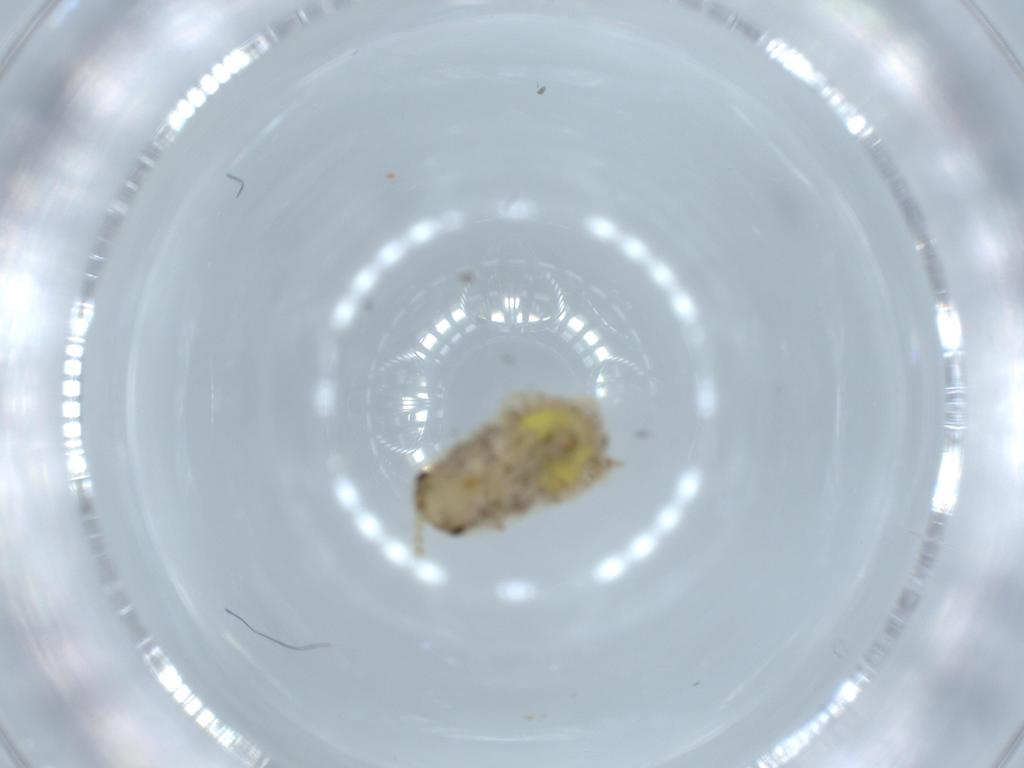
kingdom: Animalia
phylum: Arthropoda
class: Insecta
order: Blattodea
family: Ectobiidae
